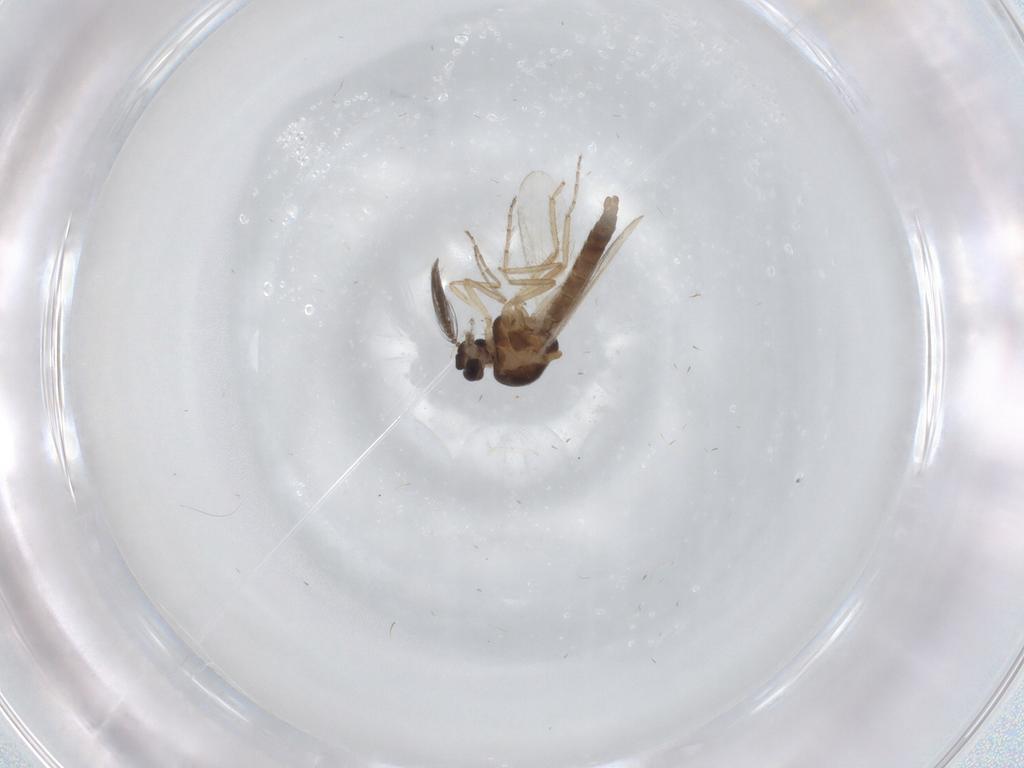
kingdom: Animalia
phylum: Arthropoda
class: Insecta
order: Diptera
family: Ceratopogonidae
